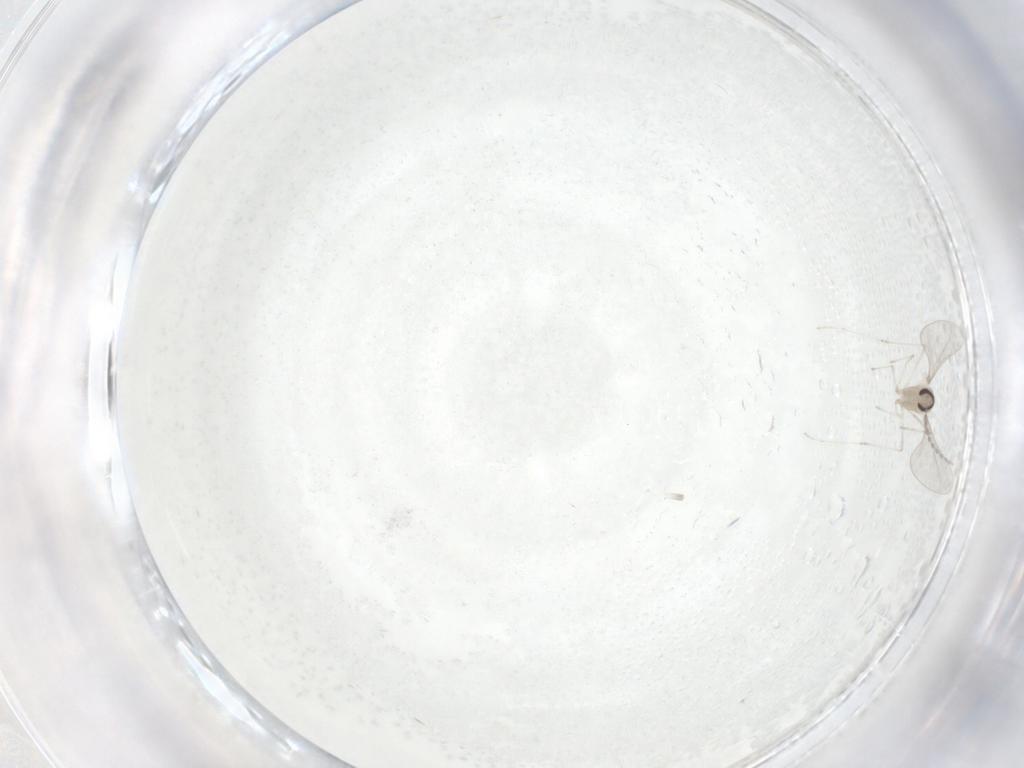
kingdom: Animalia
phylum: Arthropoda
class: Insecta
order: Diptera
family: Cecidomyiidae
